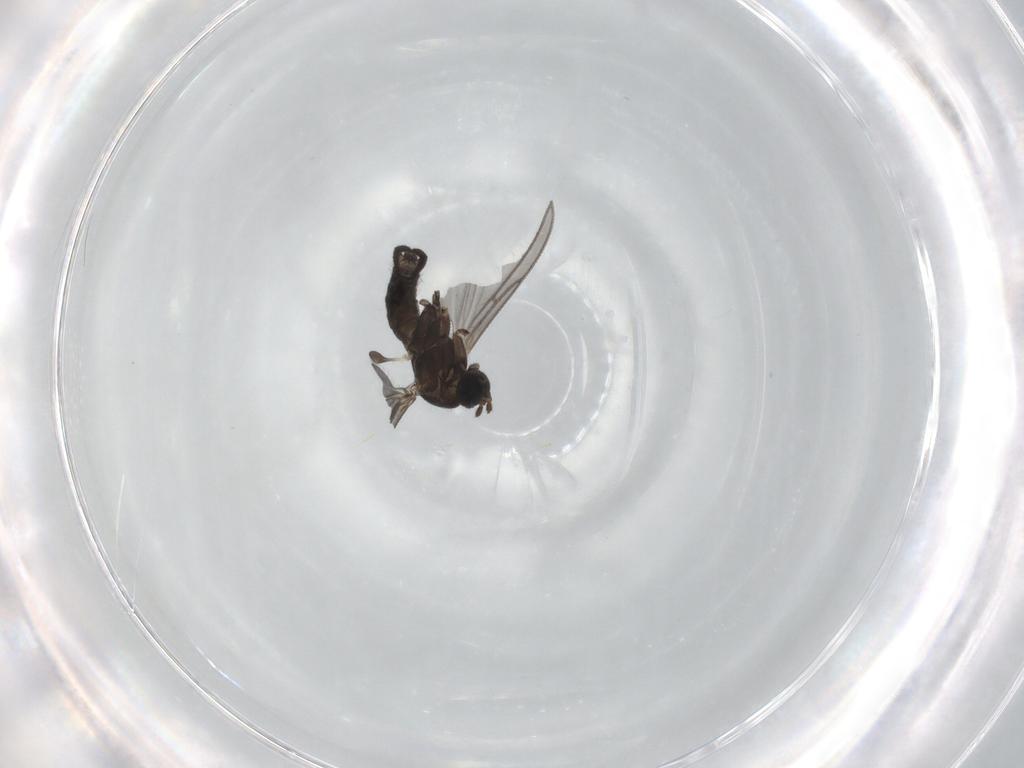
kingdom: Animalia
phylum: Arthropoda
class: Insecta
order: Diptera
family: Sciaridae
